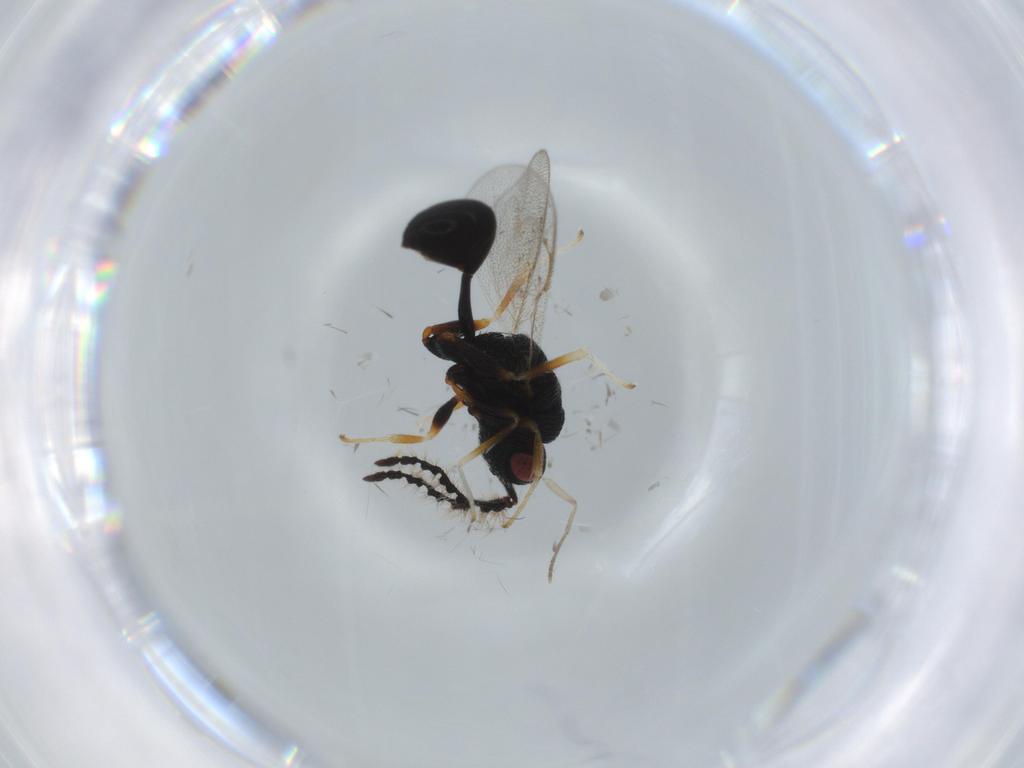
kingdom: Animalia
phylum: Arthropoda
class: Insecta
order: Hymenoptera
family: Eurytomidae
